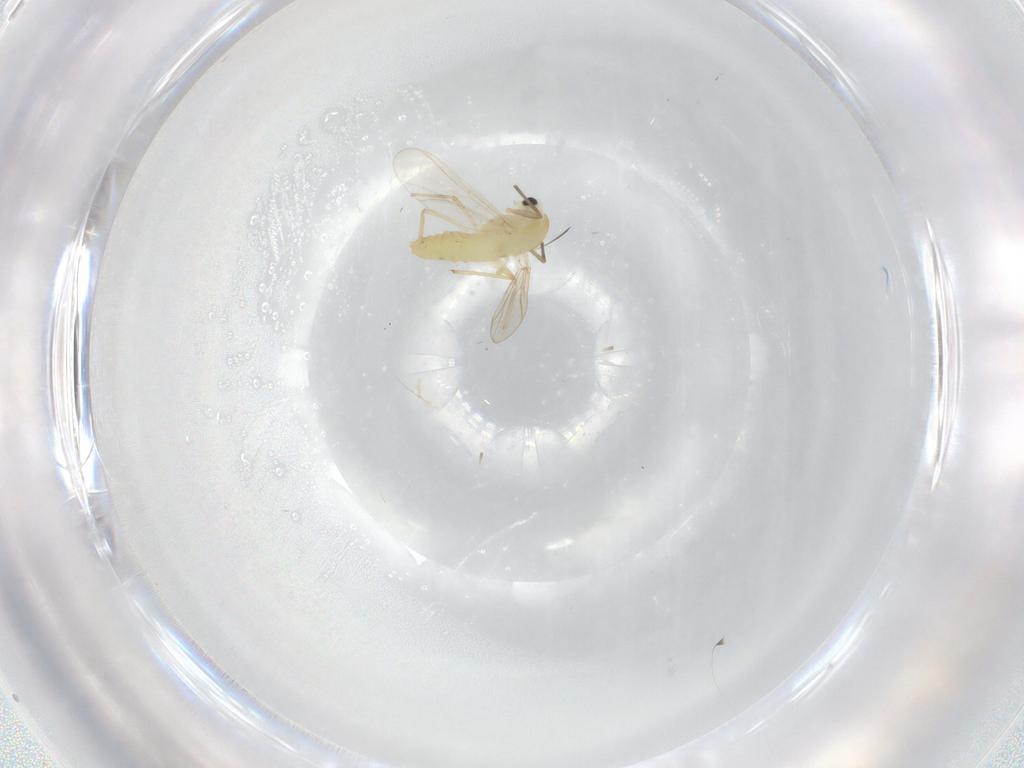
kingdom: Animalia
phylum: Arthropoda
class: Insecta
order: Diptera
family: Chironomidae
